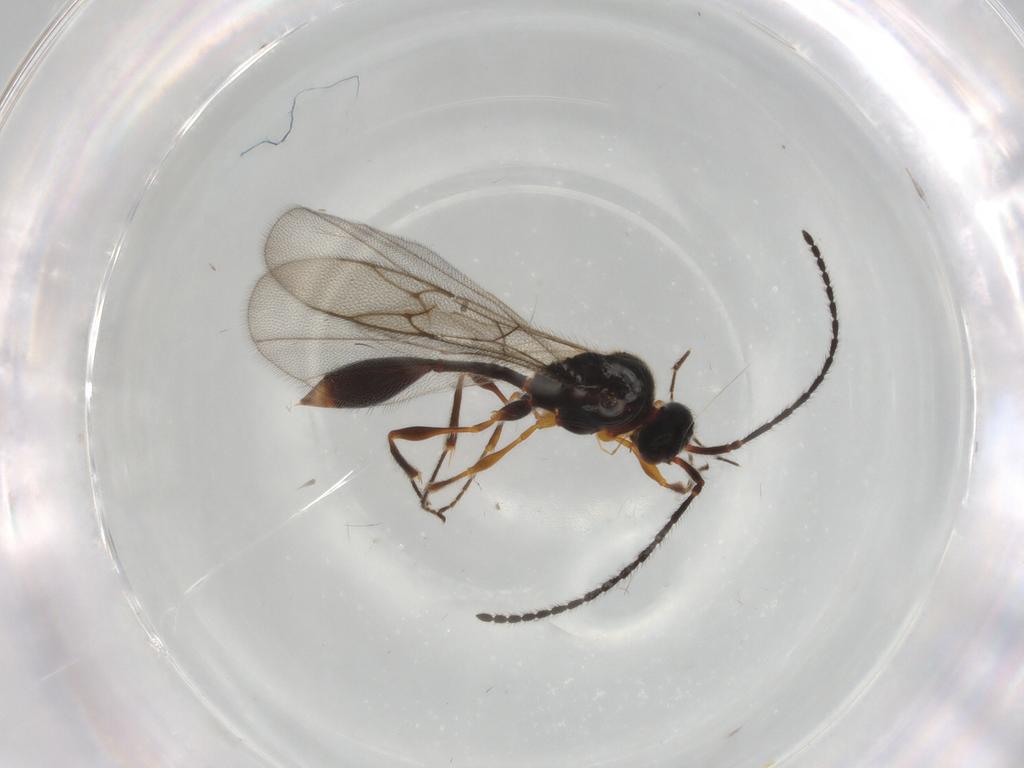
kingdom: Animalia
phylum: Arthropoda
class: Insecta
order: Hymenoptera
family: Diapriidae
